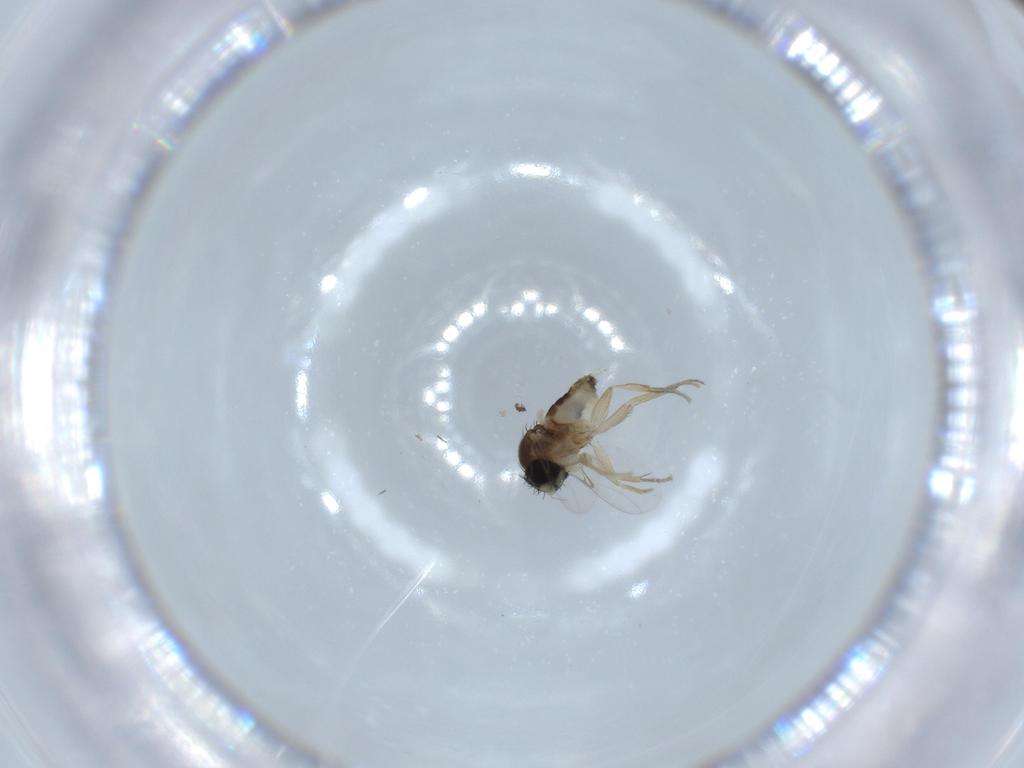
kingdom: Animalia
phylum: Arthropoda
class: Insecta
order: Diptera
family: Phoridae
